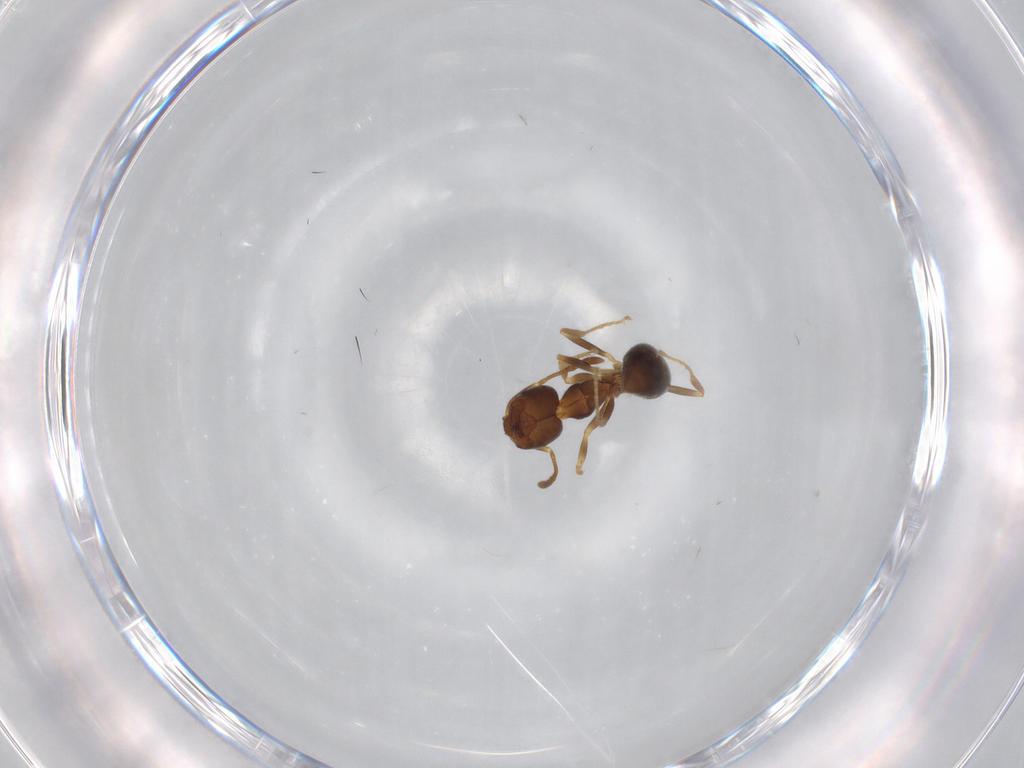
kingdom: Animalia
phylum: Arthropoda
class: Insecta
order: Hymenoptera
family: Formicidae
